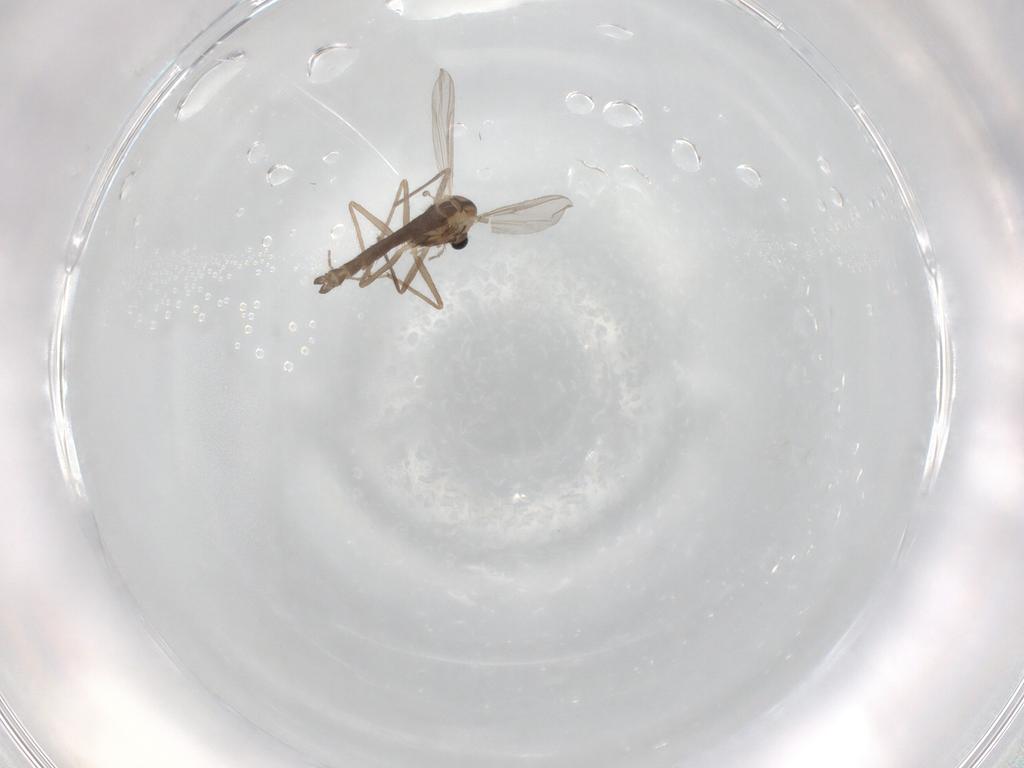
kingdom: Animalia
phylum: Arthropoda
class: Insecta
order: Diptera
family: Chironomidae
